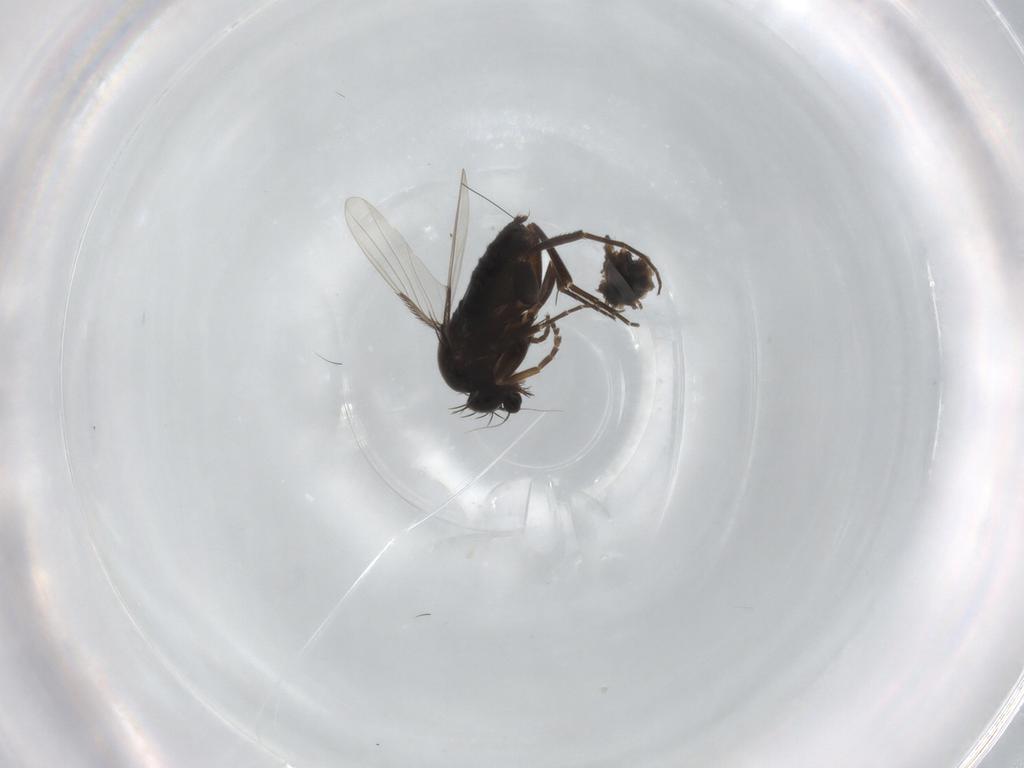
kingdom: Animalia
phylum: Arthropoda
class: Insecta
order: Diptera
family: Phoridae
